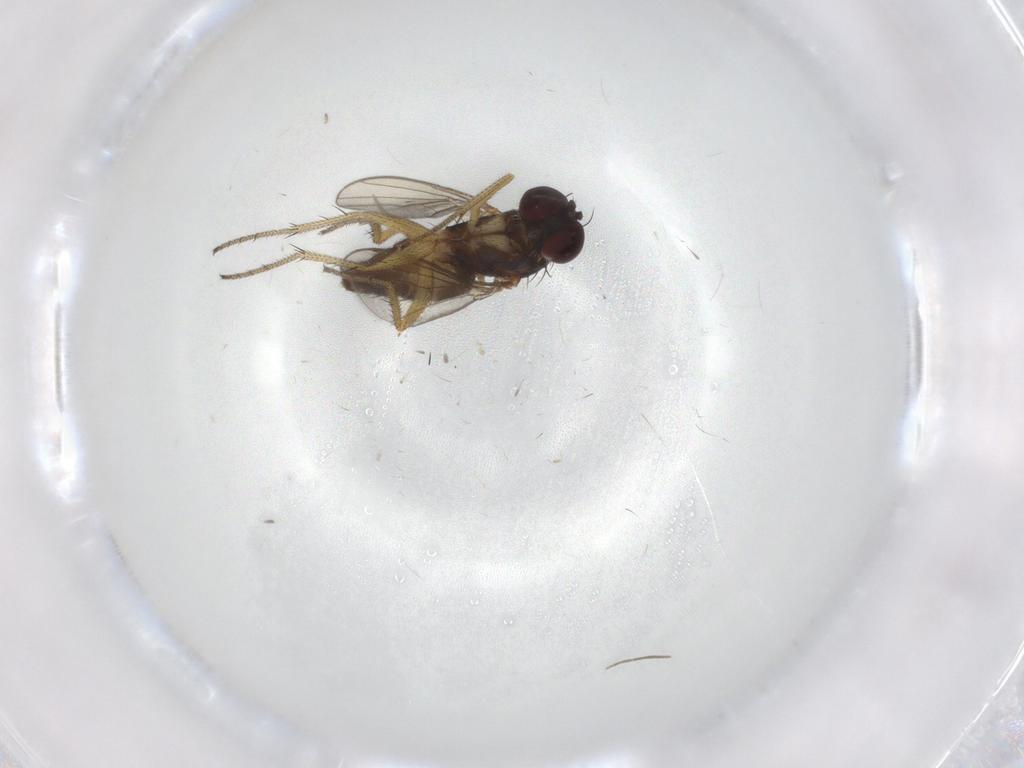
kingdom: Animalia
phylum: Arthropoda
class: Insecta
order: Diptera
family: Dolichopodidae
